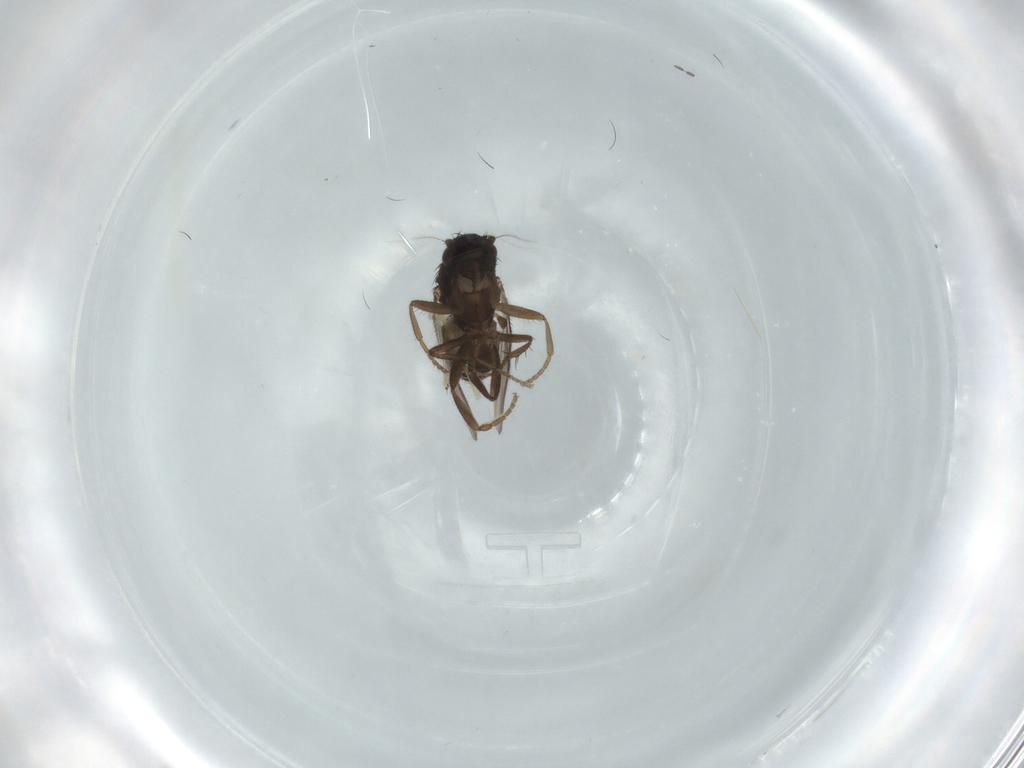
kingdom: Animalia
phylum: Arthropoda
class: Insecta
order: Diptera
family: Sphaeroceridae
